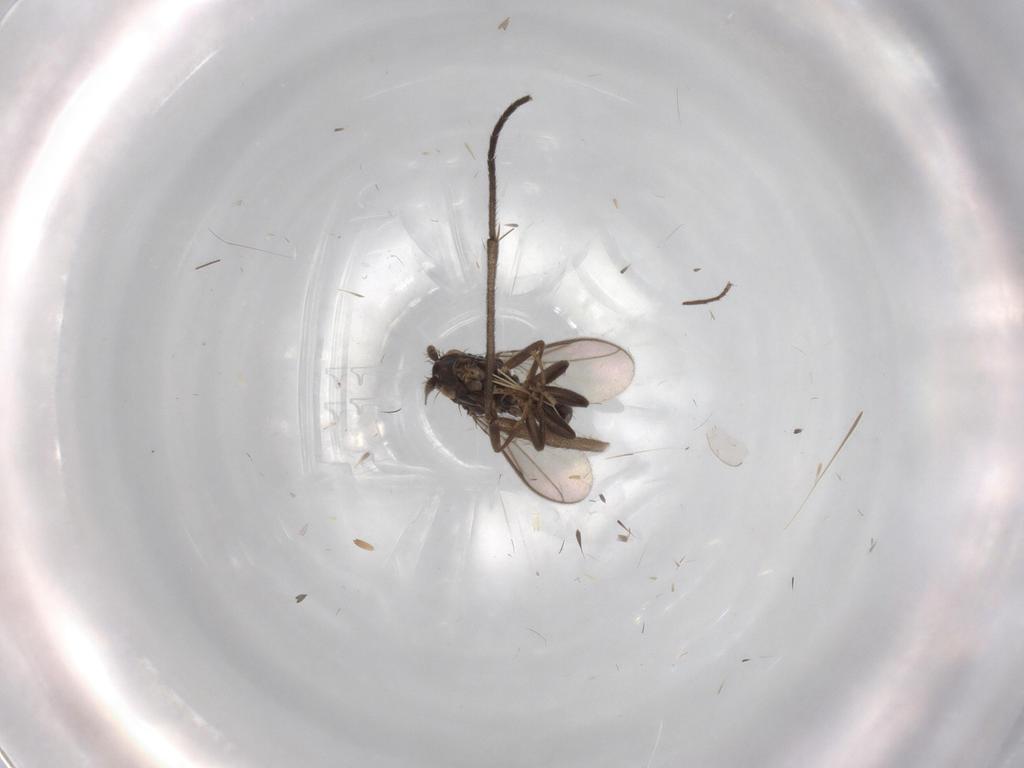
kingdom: Animalia
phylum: Arthropoda
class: Insecta
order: Diptera
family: Sphaeroceridae
